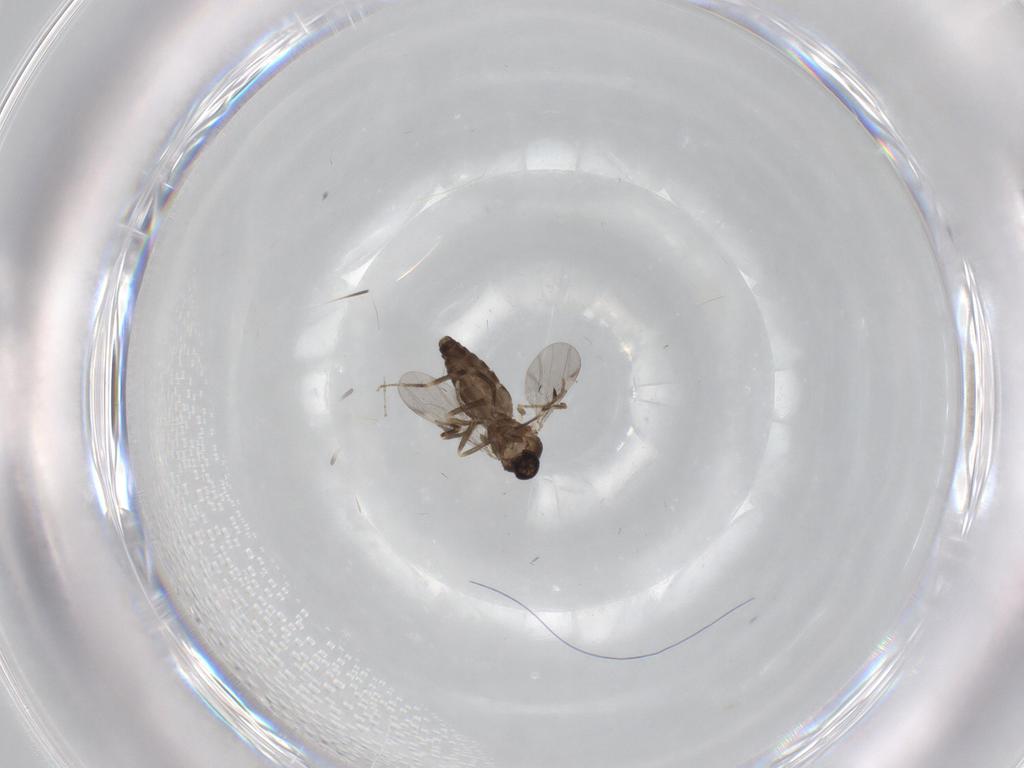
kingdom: Animalia
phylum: Arthropoda
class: Insecta
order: Diptera
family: Ceratopogonidae
